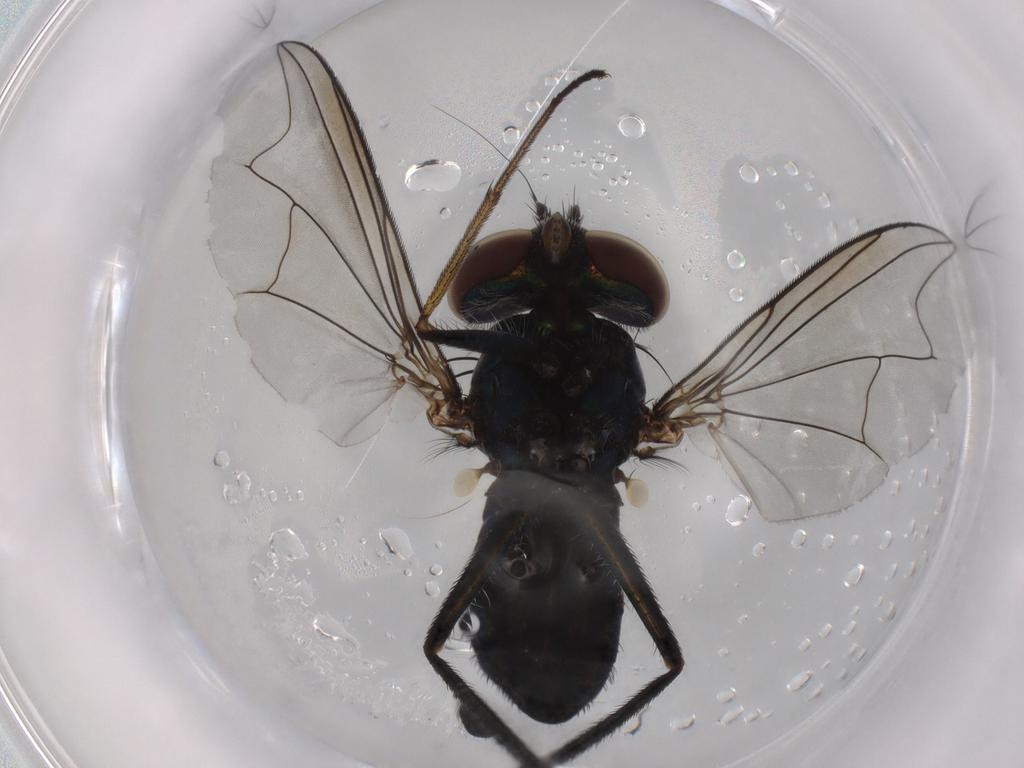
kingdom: Animalia
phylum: Arthropoda
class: Insecta
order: Diptera
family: Dolichopodidae
